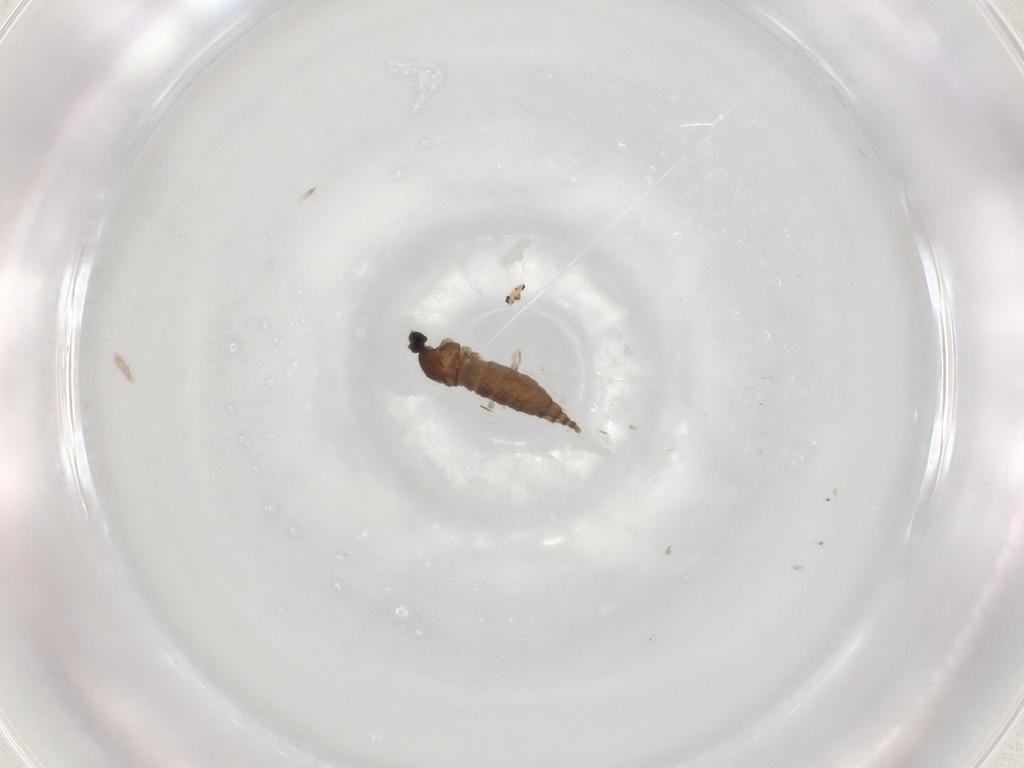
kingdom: Animalia
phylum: Arthropoda
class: Insecta
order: Diptera
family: Cecidomyiidae
